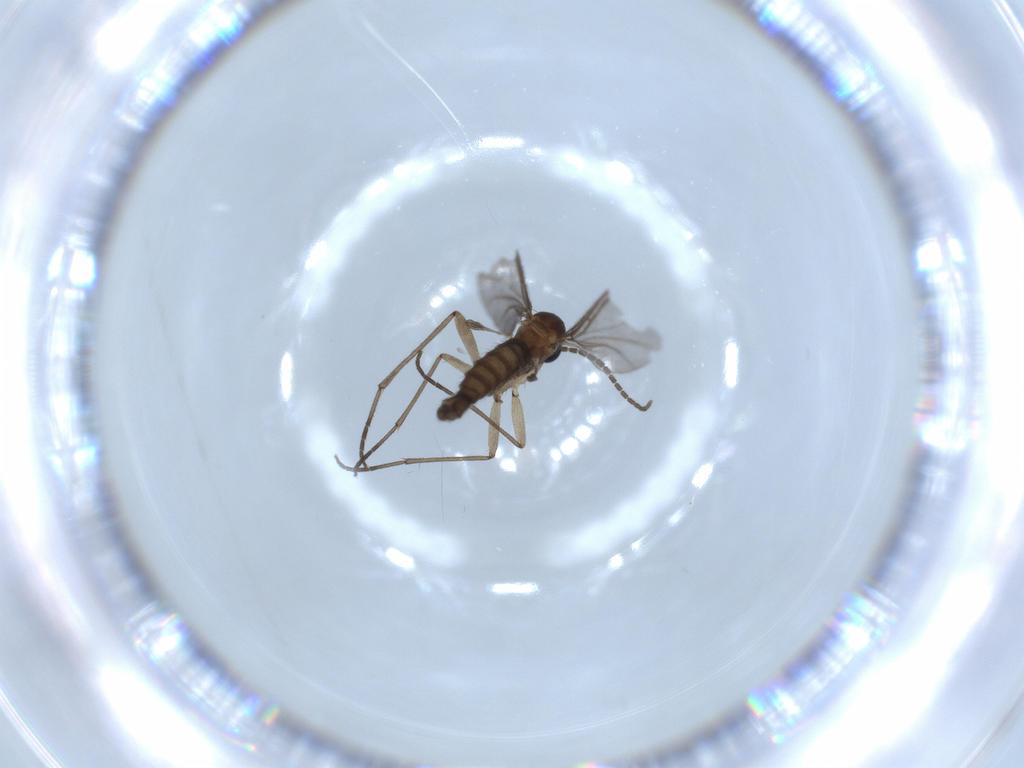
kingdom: Animalia
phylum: Arthropoda
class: Insecta
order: Diptera
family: Sciaridae
